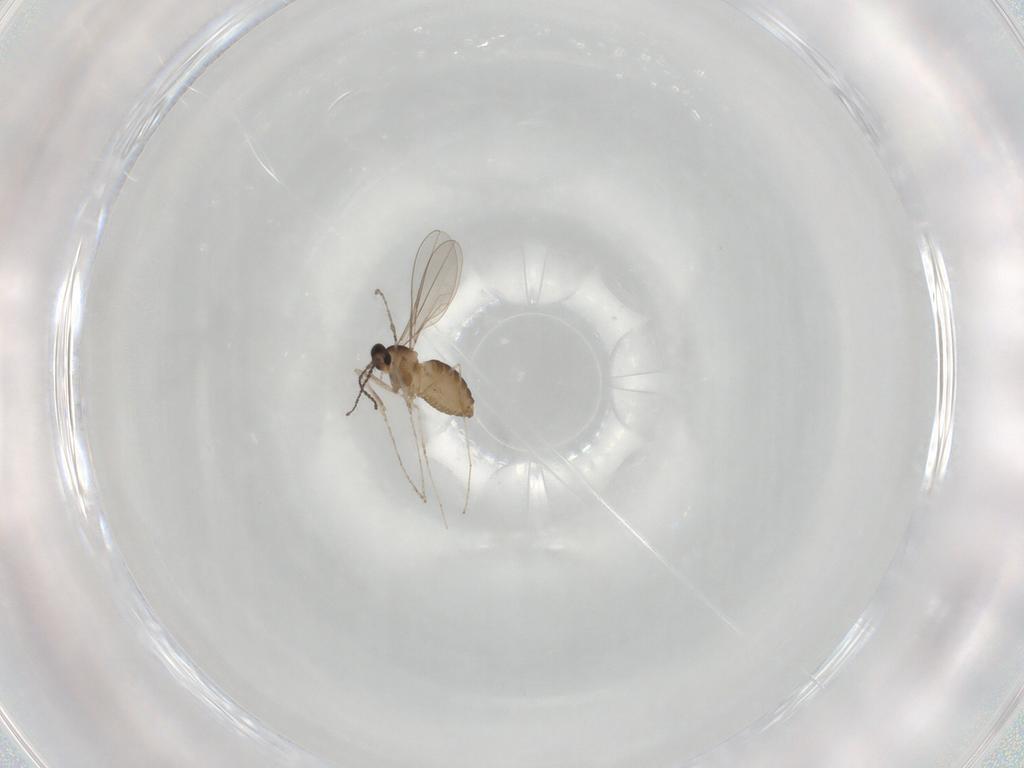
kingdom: Animalia
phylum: Arthropoda
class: Insecta
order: Diptera
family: Cecidomyiidae
